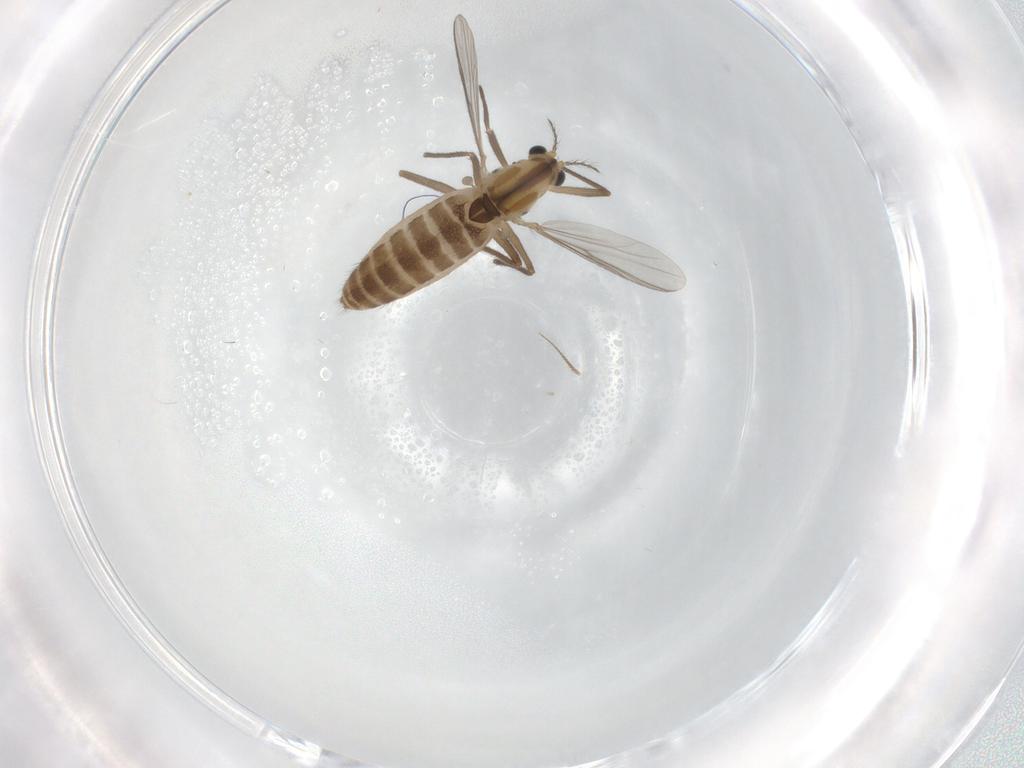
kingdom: Animalia
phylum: Arthropoda
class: Insecta
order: Diptera
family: Chironomidae
